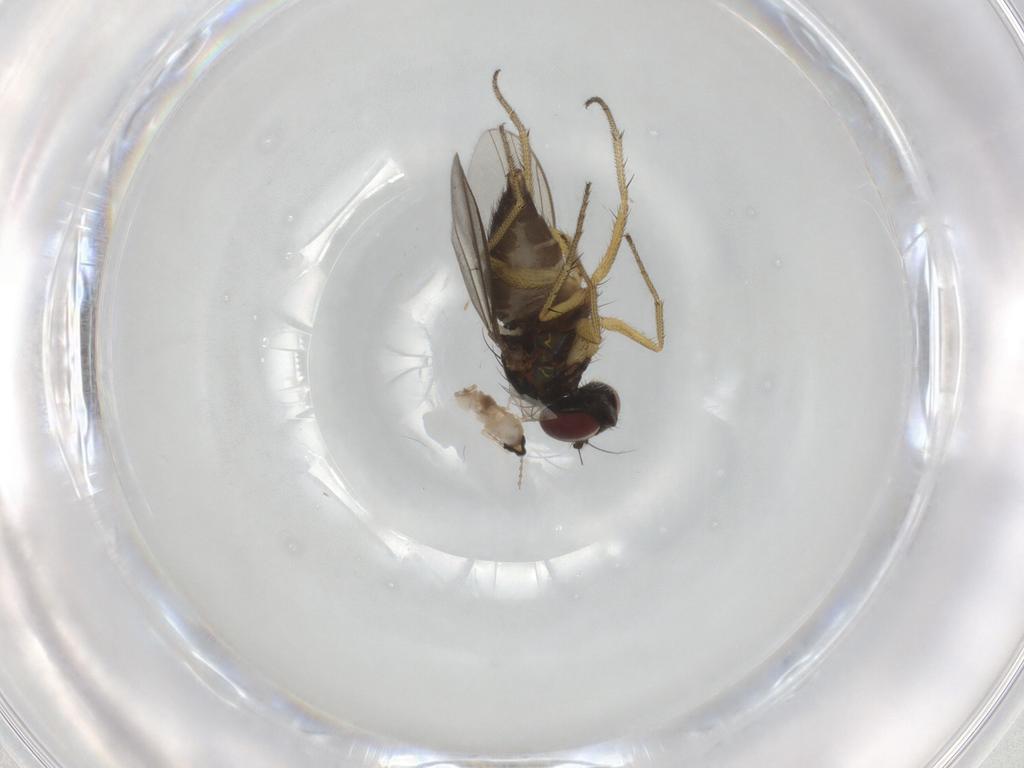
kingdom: Animalia
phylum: Arthropoda
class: Insecta
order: Diptera
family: Dolichopodidae
